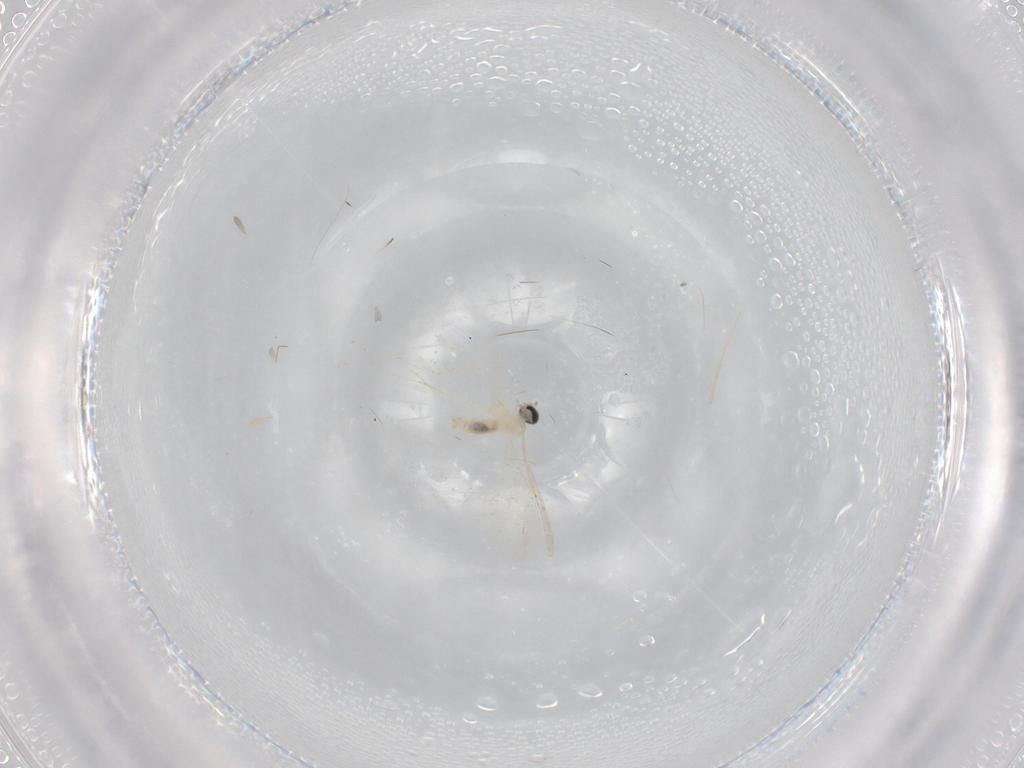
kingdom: Animalia
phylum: Arthropoda
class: Insecta
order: Diptera
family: Cecidomyiidae
